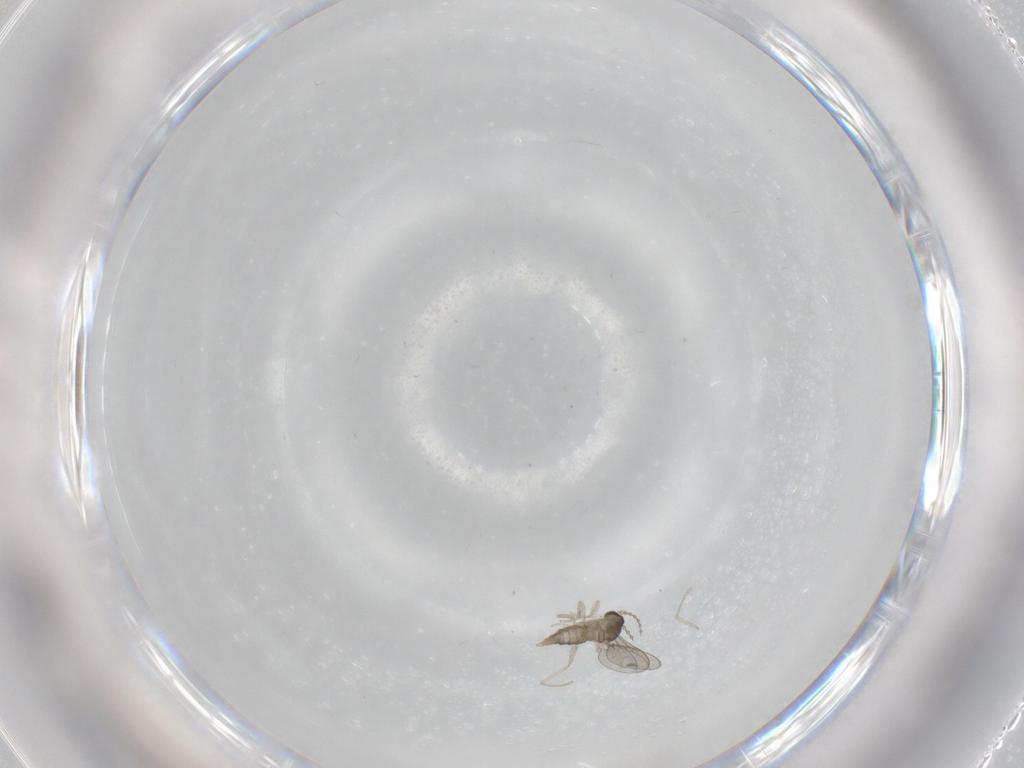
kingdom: Animalia
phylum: Arthropoda
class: Insecta
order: Diptera
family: Cecidomyiidae
